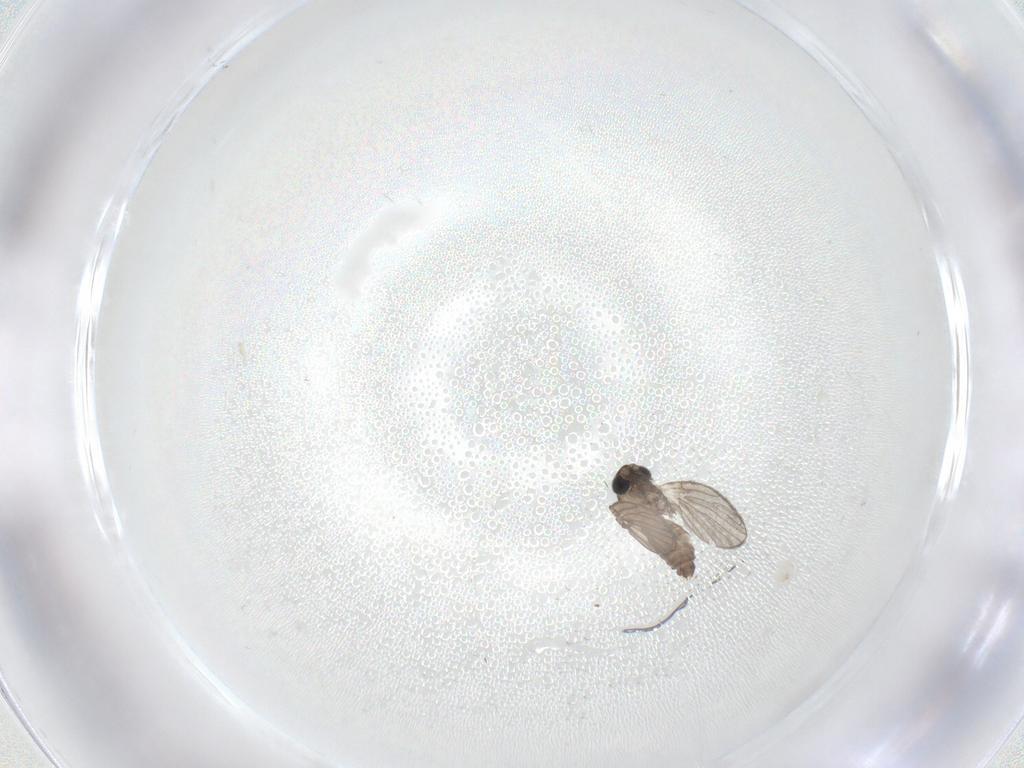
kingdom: Animalia
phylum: Arthropoda
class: Insecta
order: Diptera
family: Psychodidae
